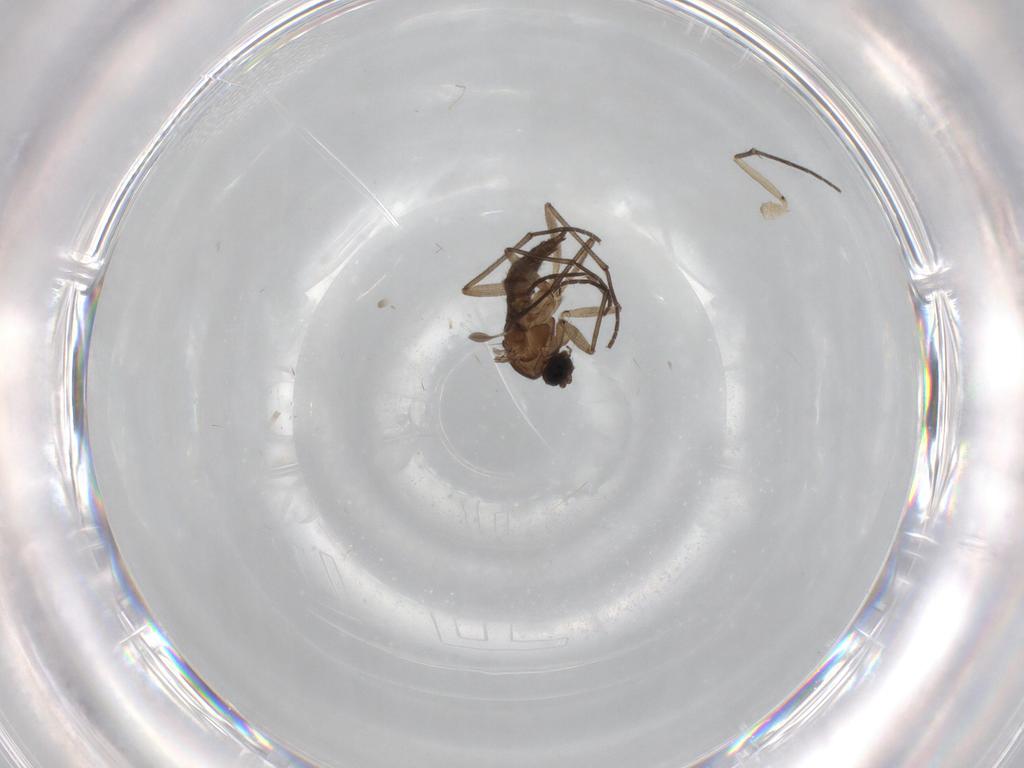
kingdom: Animalia
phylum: Arthropoda
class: Insecta
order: Diptera
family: Sciaridae
